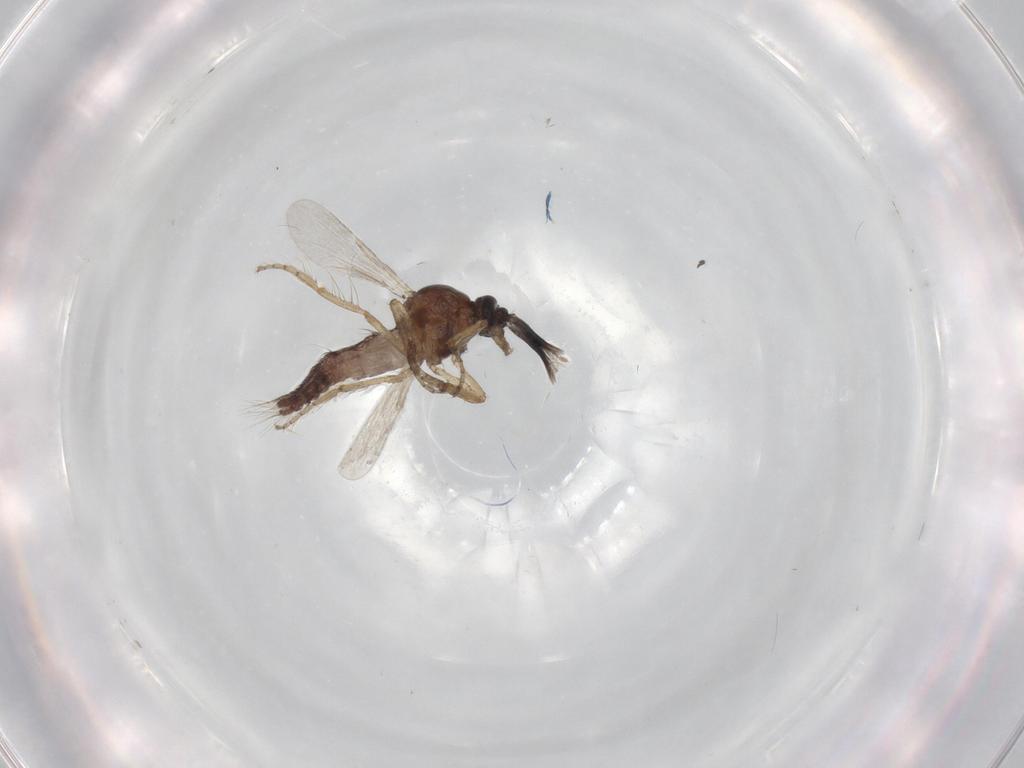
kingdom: Animalia
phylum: Arthropoda
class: Insecta
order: Diptera
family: Ceratopogonidae
